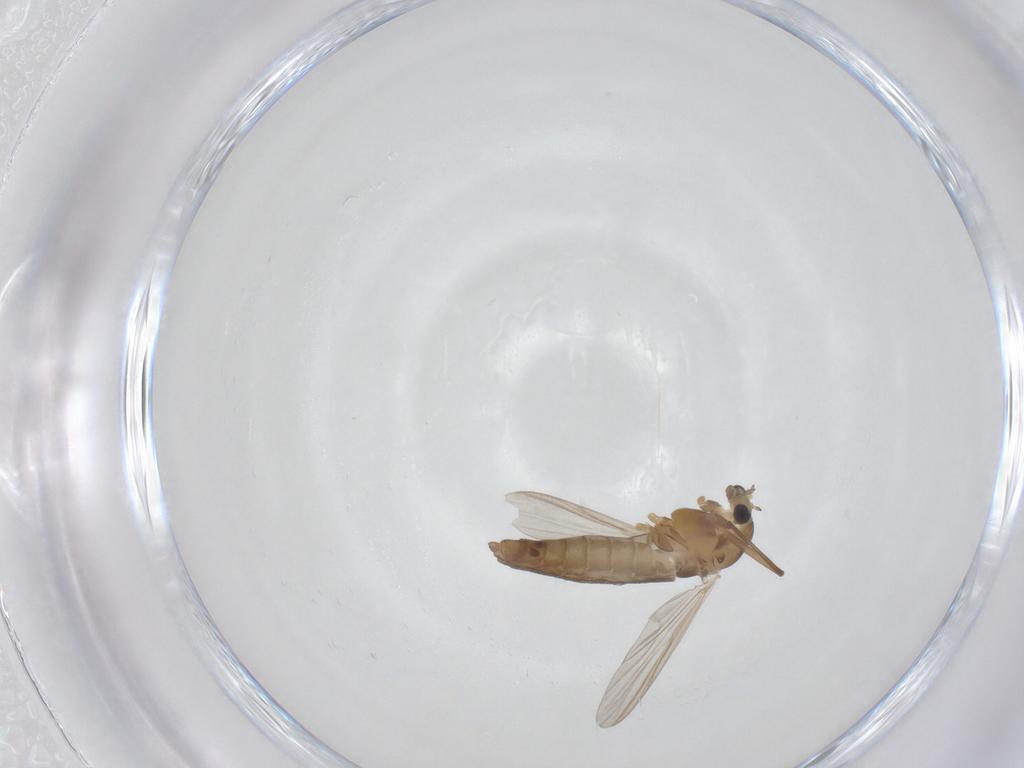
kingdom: Animalia
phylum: Arthropoda
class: Insecta
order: Diptera
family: Chironomidae
